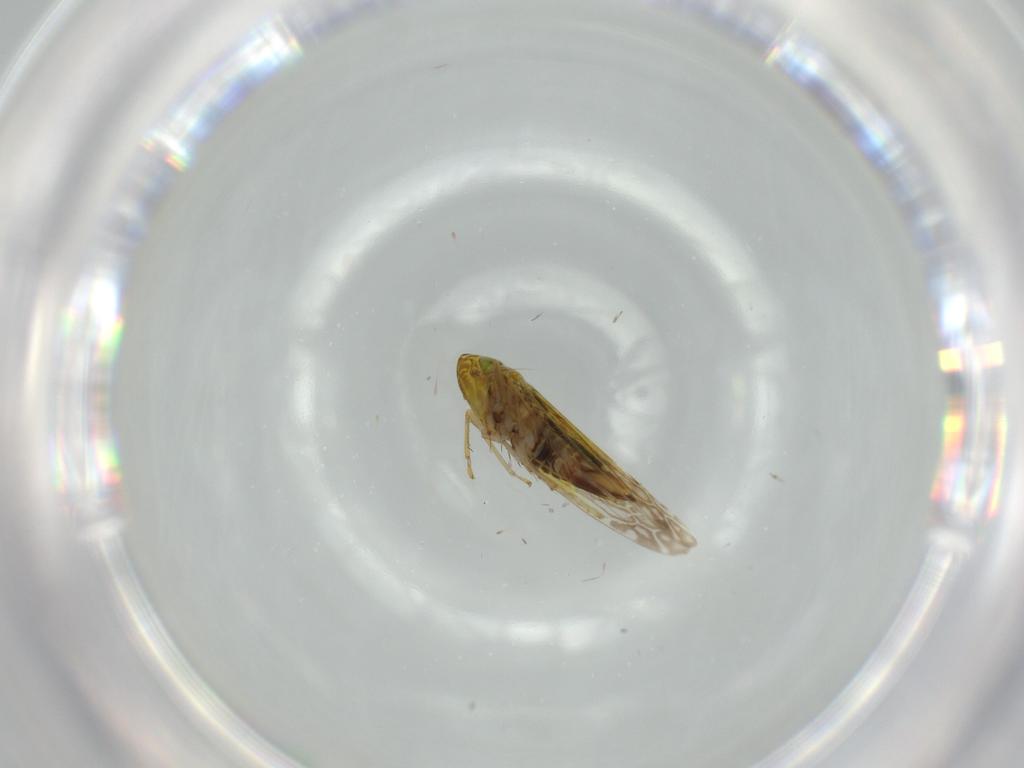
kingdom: Animalia
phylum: Arthropoda
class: Insecta
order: Hemiptera
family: Cicadellidae
